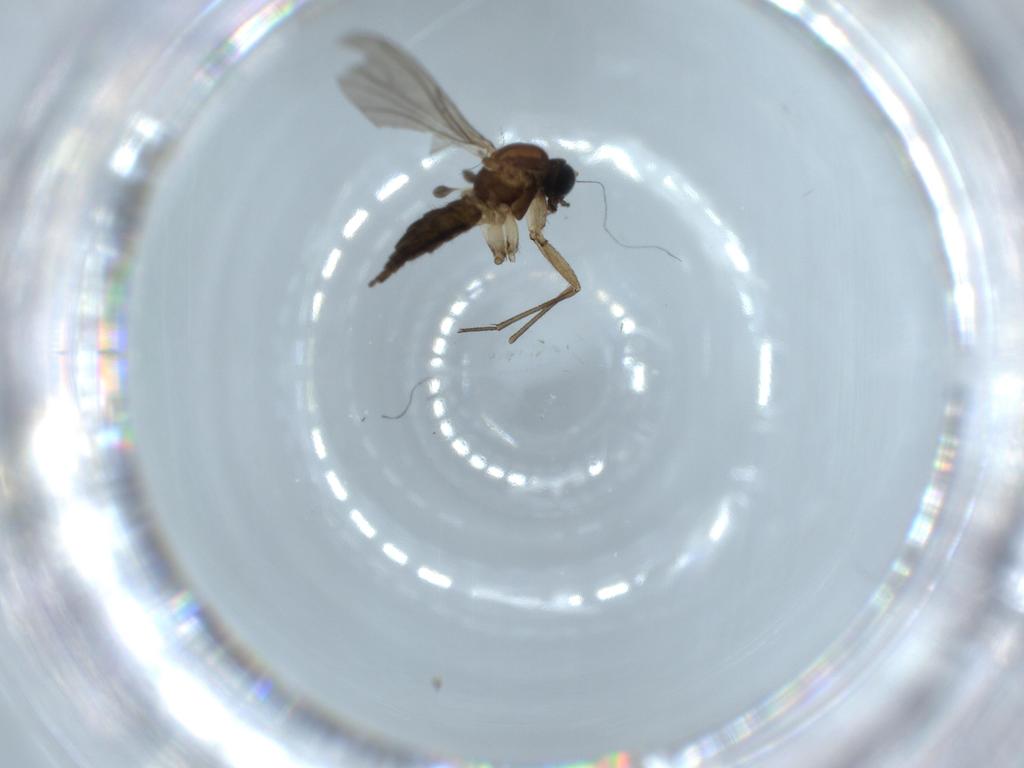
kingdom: Animalia
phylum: Arthropoda
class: Insecta
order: Diptera
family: Sciaridae
